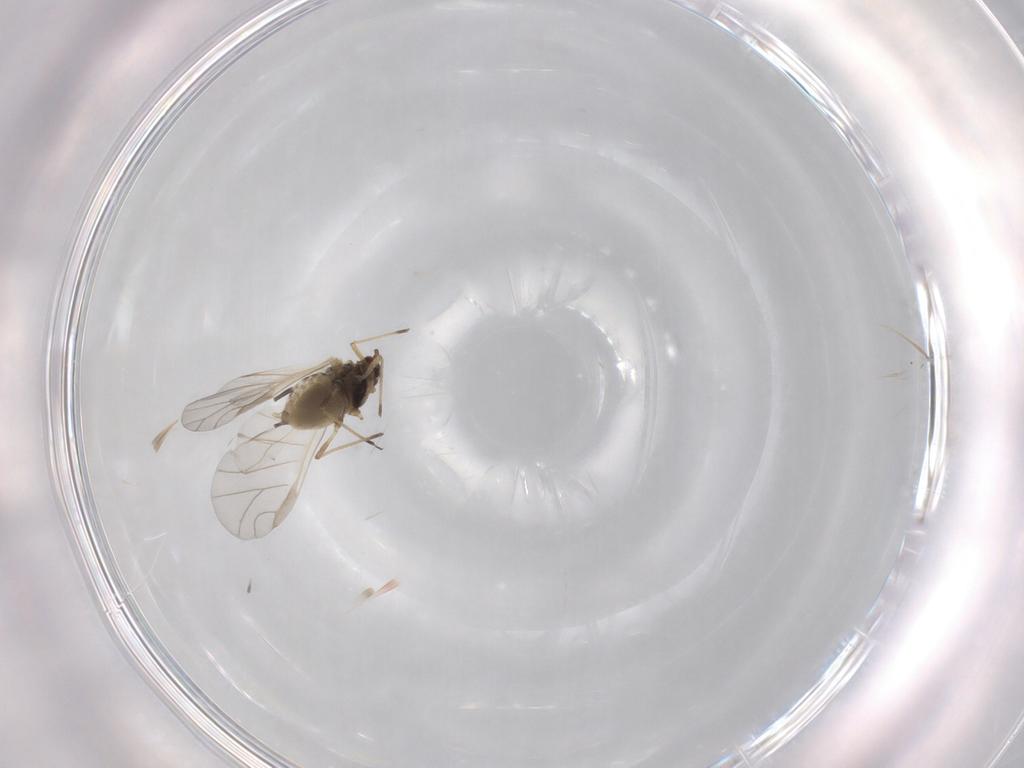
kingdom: Animalia
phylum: Arthropoda
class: Insecta
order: Hemiptera
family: Aphididae
